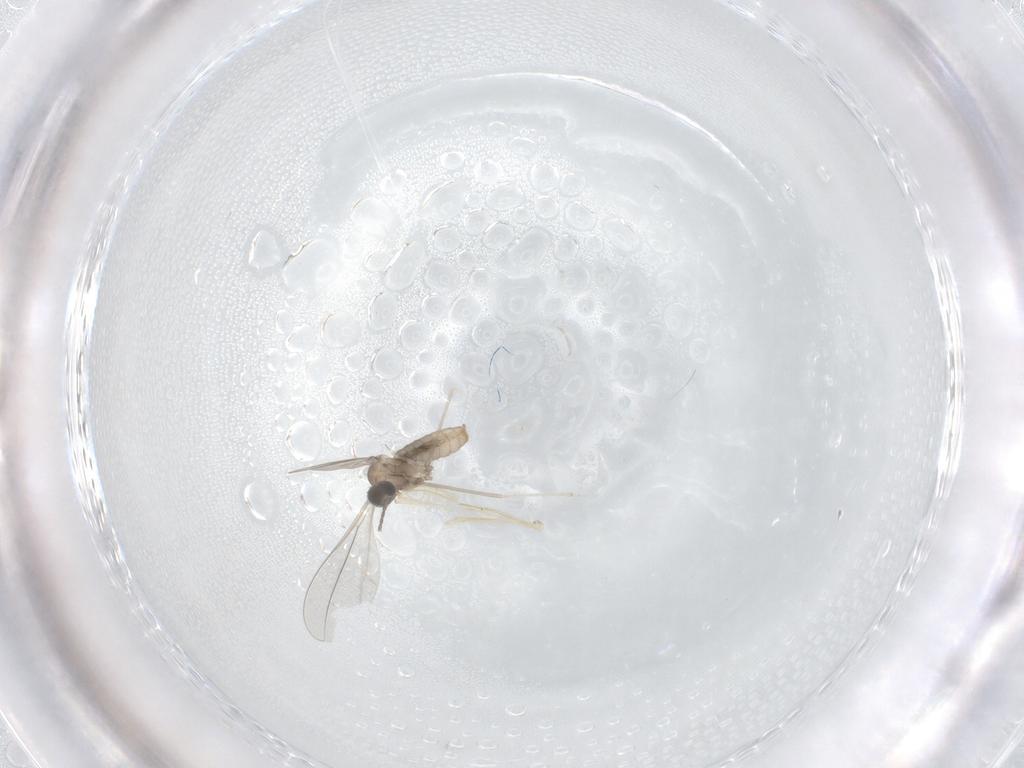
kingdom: Animalia
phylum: Arthropoda
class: Insecta
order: Diptera
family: Cecidomyiidae
